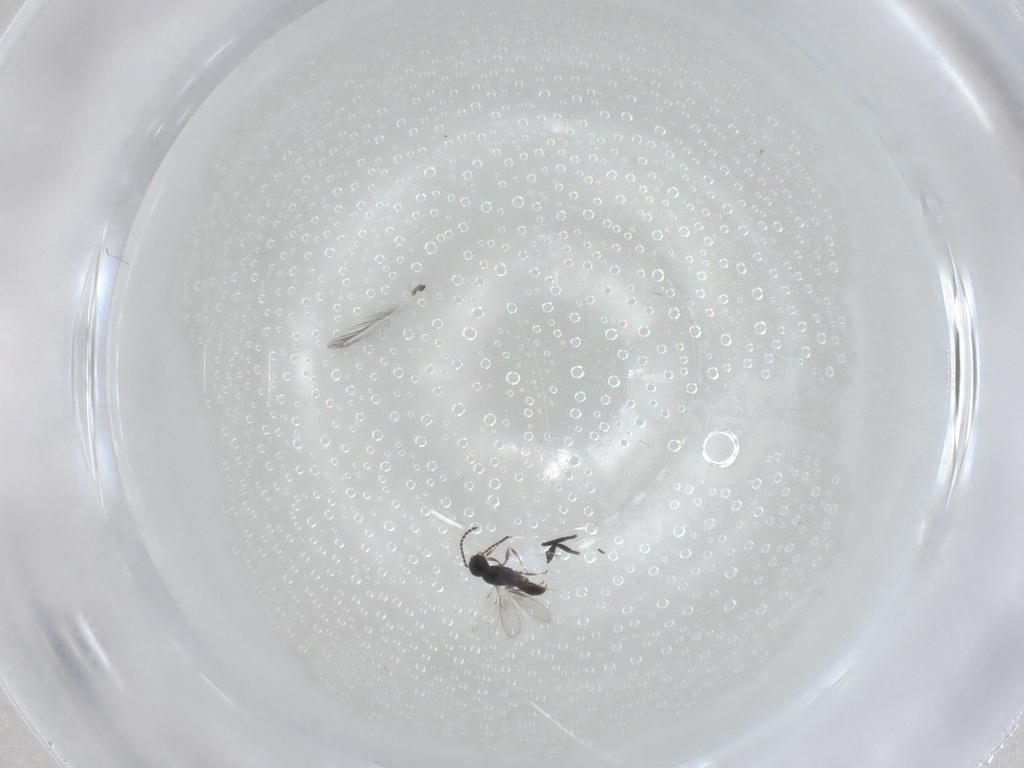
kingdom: Animalia
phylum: Arthropoda
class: Insecta
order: Hymenoptera
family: Scelionidae
